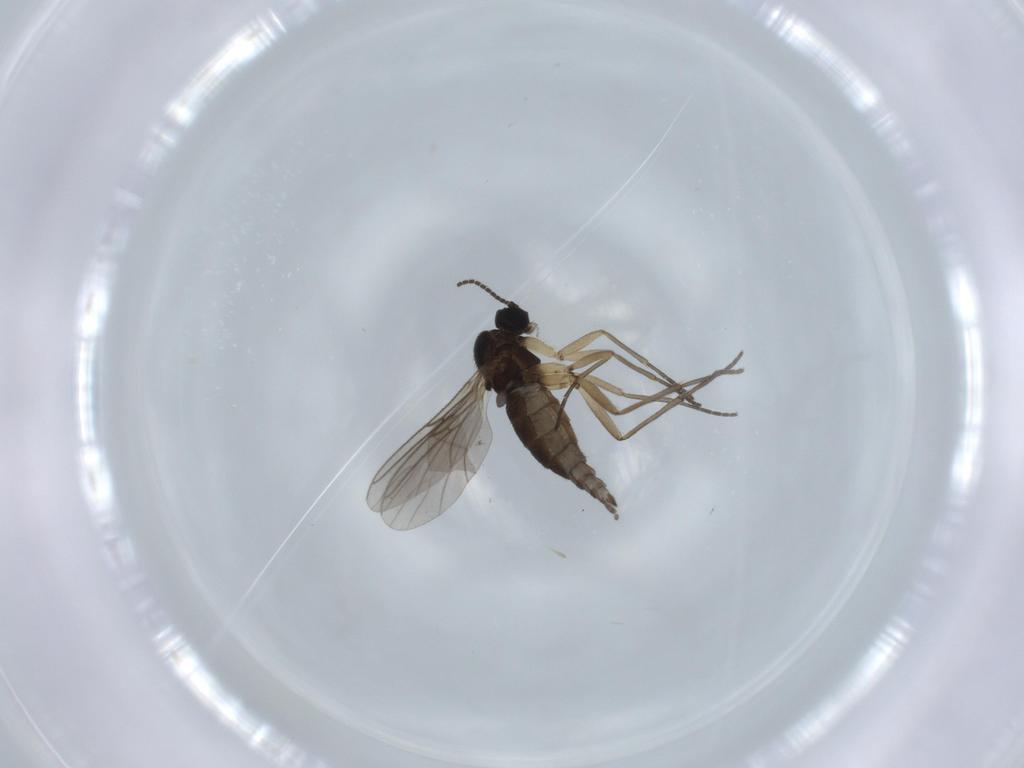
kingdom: Animalia
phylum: Arthropoda
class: Insecta
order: Diptera
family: Sciaridae
